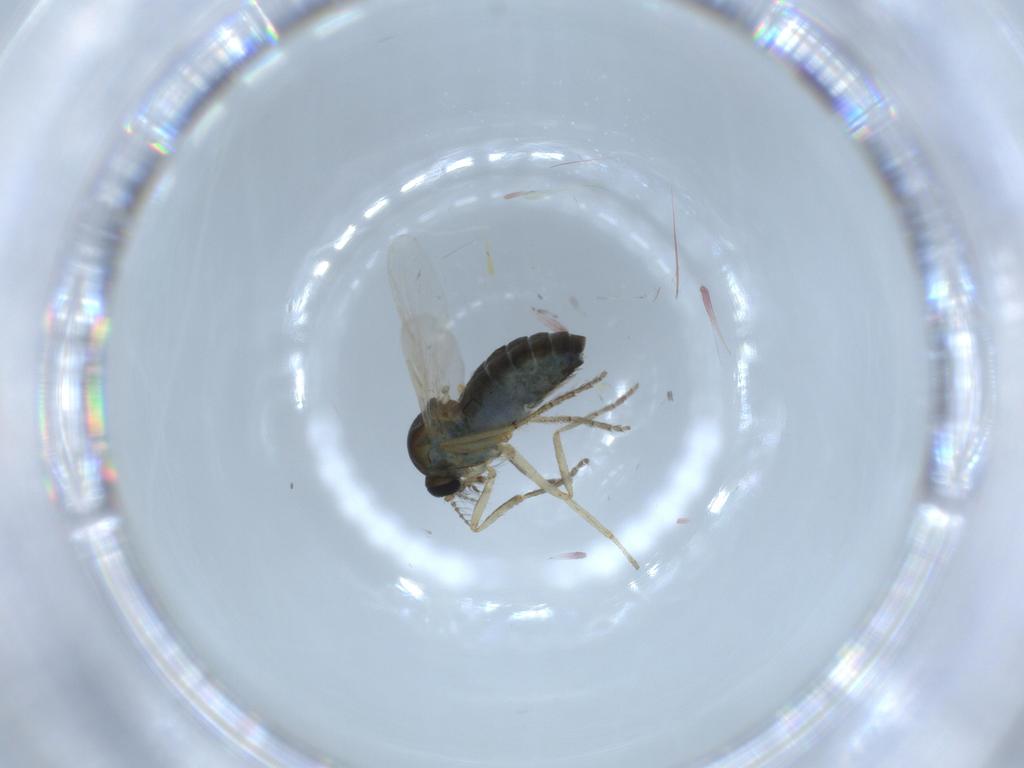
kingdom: Animalia
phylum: Arthropoda
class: Insecta
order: Diptera
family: Ceratopogonidae
